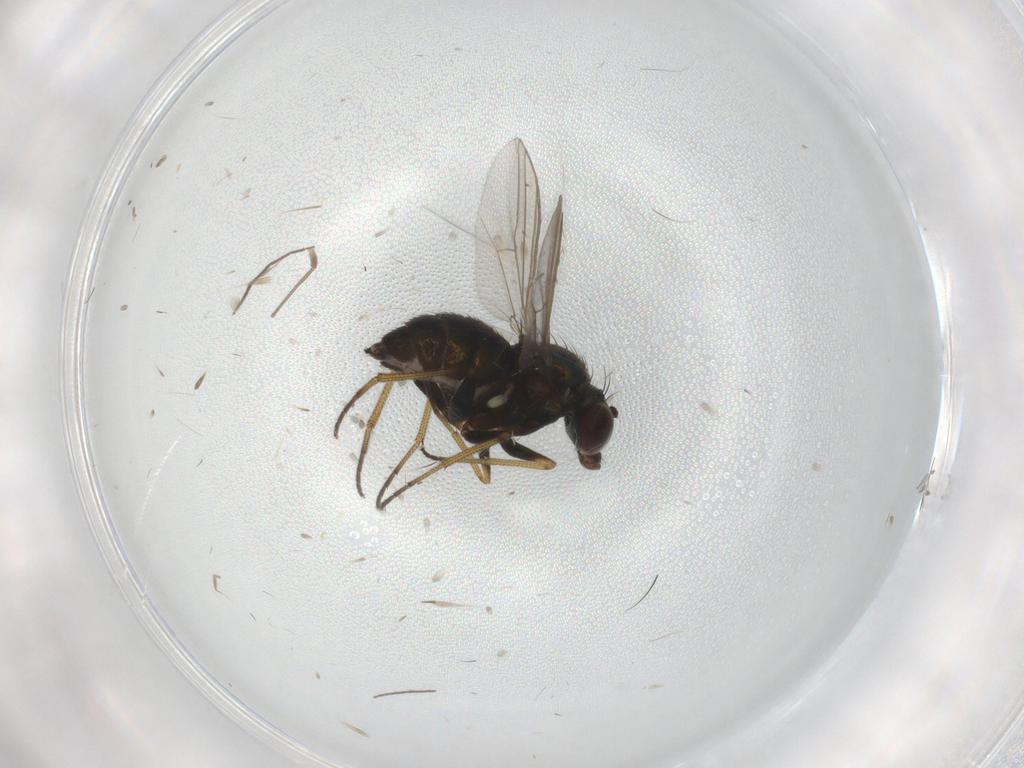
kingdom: Animalia
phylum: Arthropoda
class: Insecta
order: Diptera
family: Dolichopodidae
